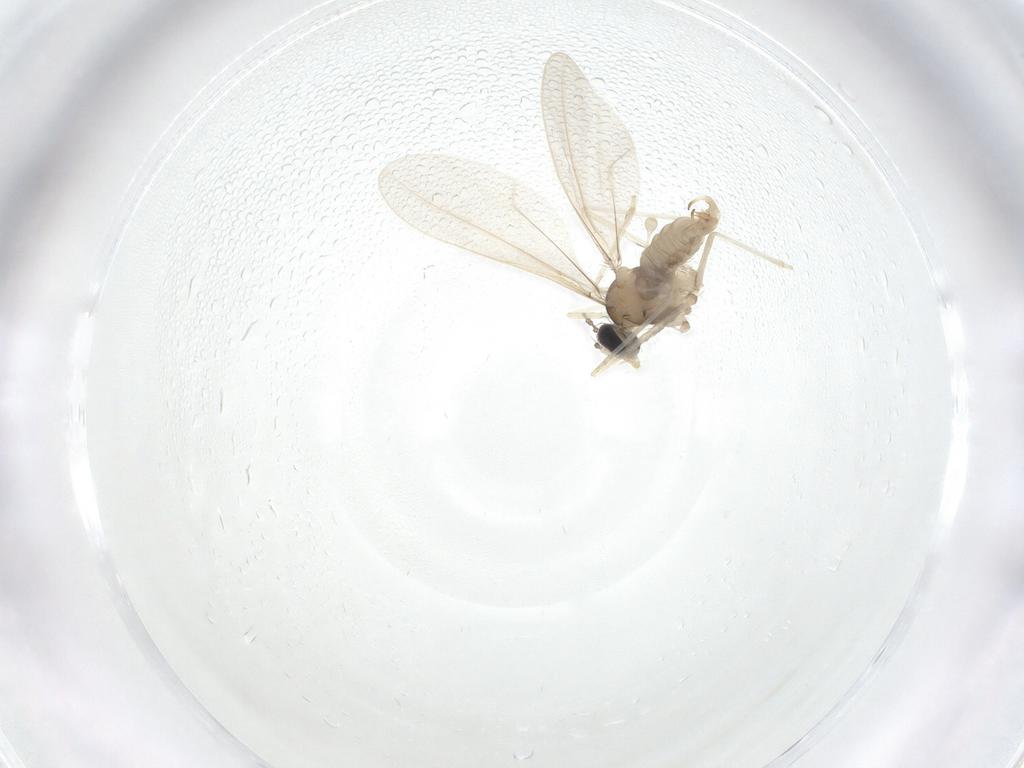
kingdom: Animalia
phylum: Arthropoda
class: Insecta
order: Diptera
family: Cecidomyiidae
